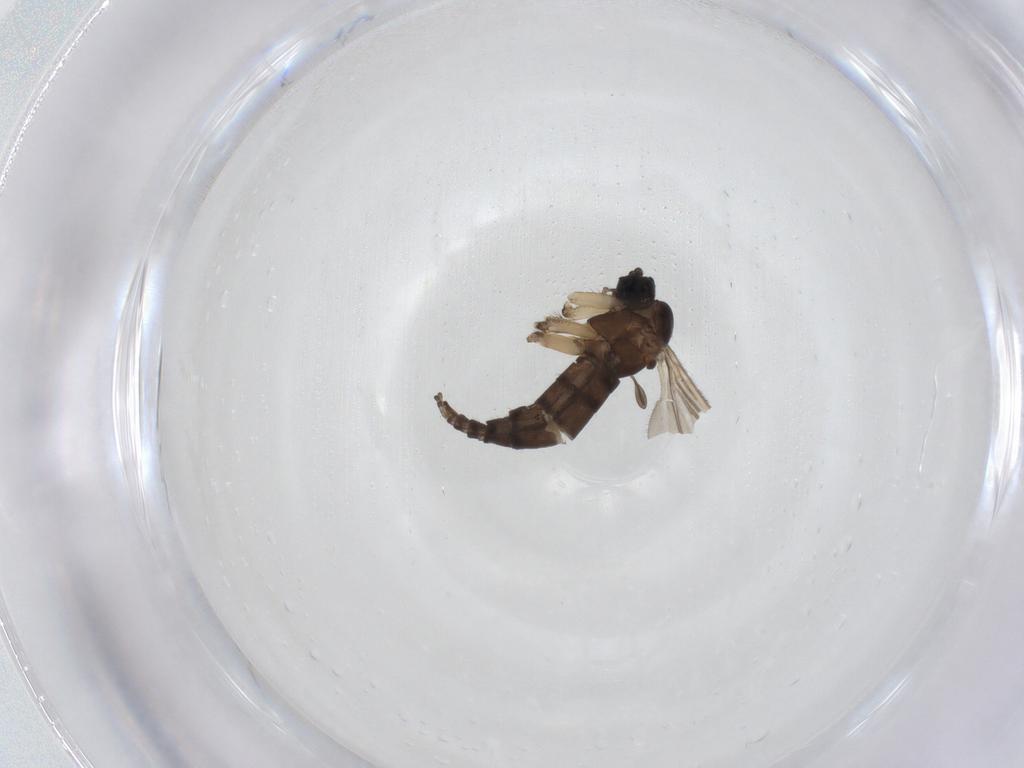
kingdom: Animalia
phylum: Arthropoda
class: Insecta
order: Diptera
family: Sciaridae
